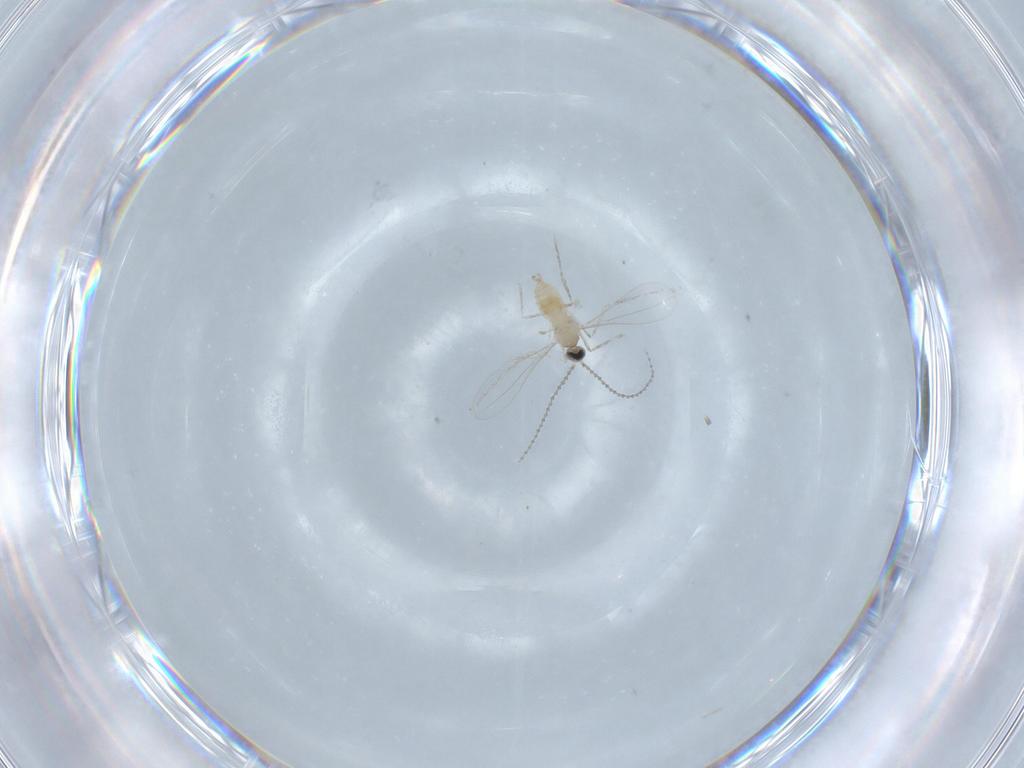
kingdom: Animalia
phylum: Arthropoda
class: Insecta
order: Diptera
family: Cecidomyiidae
